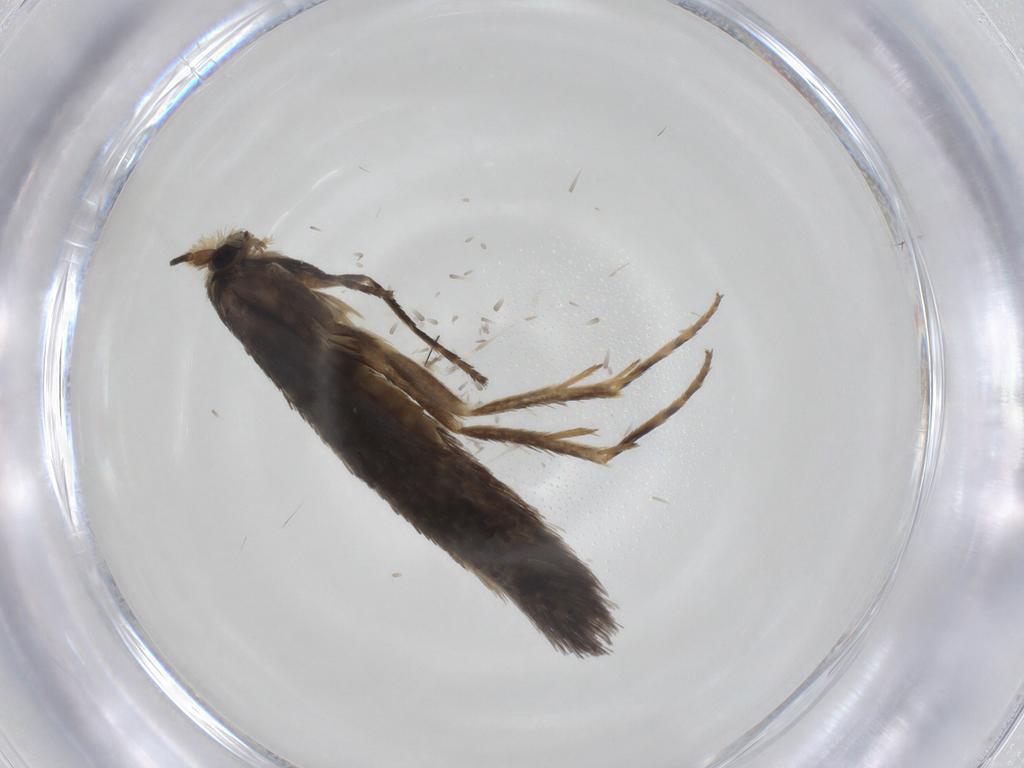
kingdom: Animalia
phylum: Arthropoda
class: Insecta
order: Lepidoptera
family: Nepticulidae
